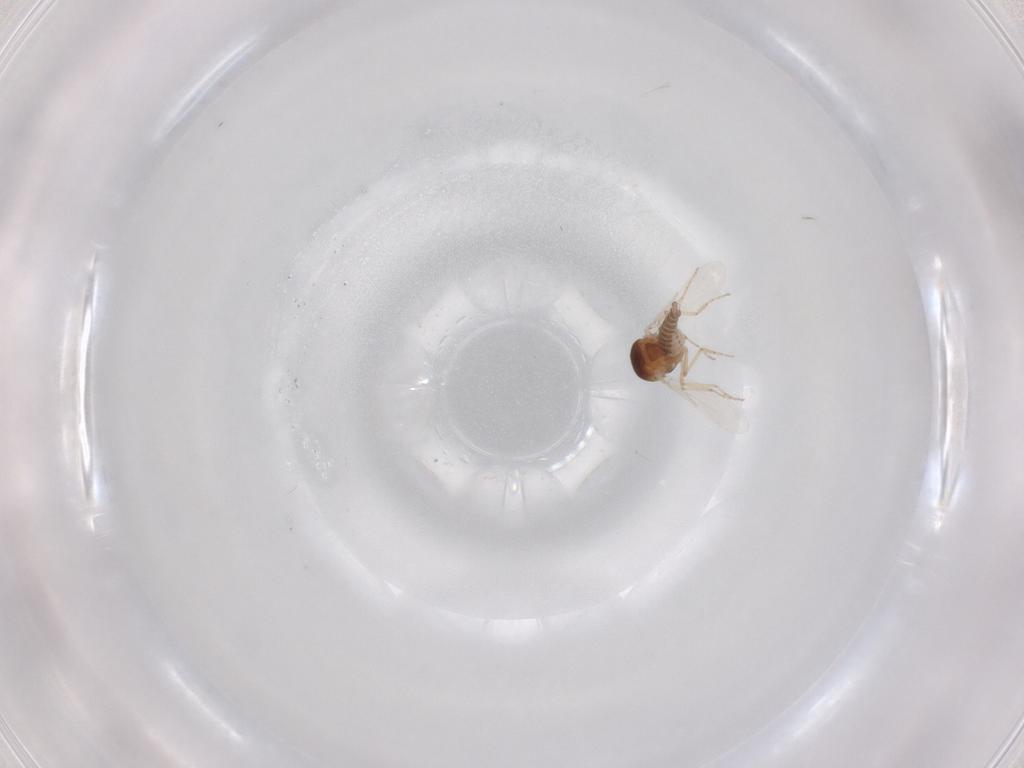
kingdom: Animalia
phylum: Arthropoda
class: Insecta
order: Diptera
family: Ceratopogonidae
